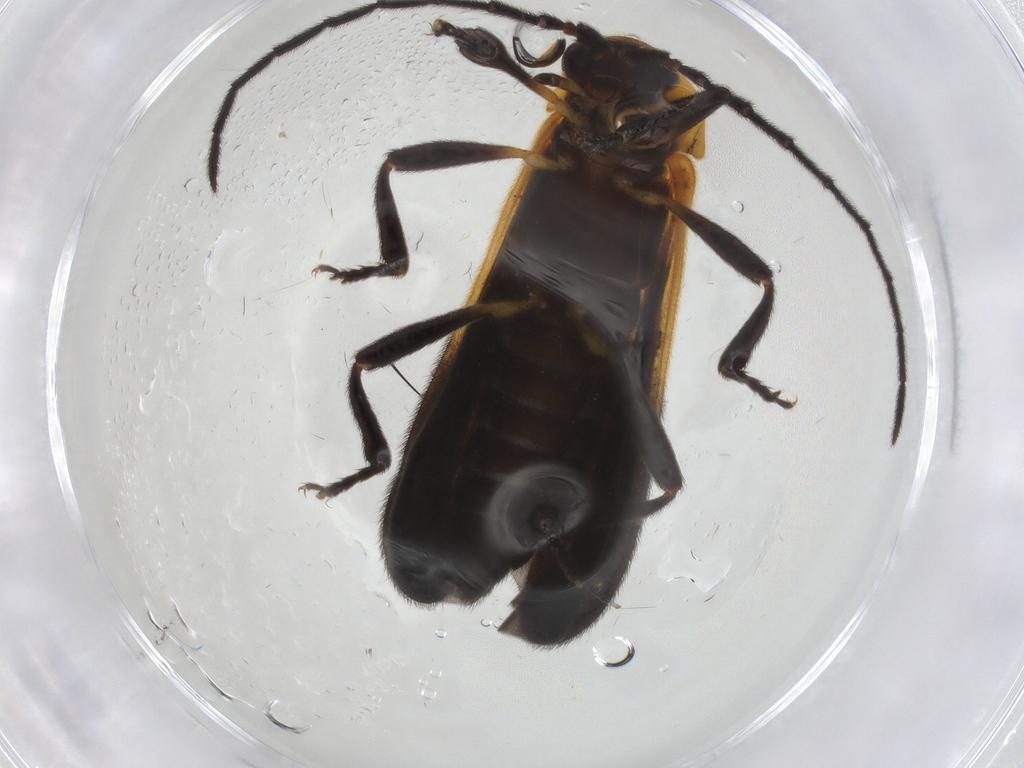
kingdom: Animalia
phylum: Arthropoda
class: Insecta
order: Coleoptera
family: Lycidae
